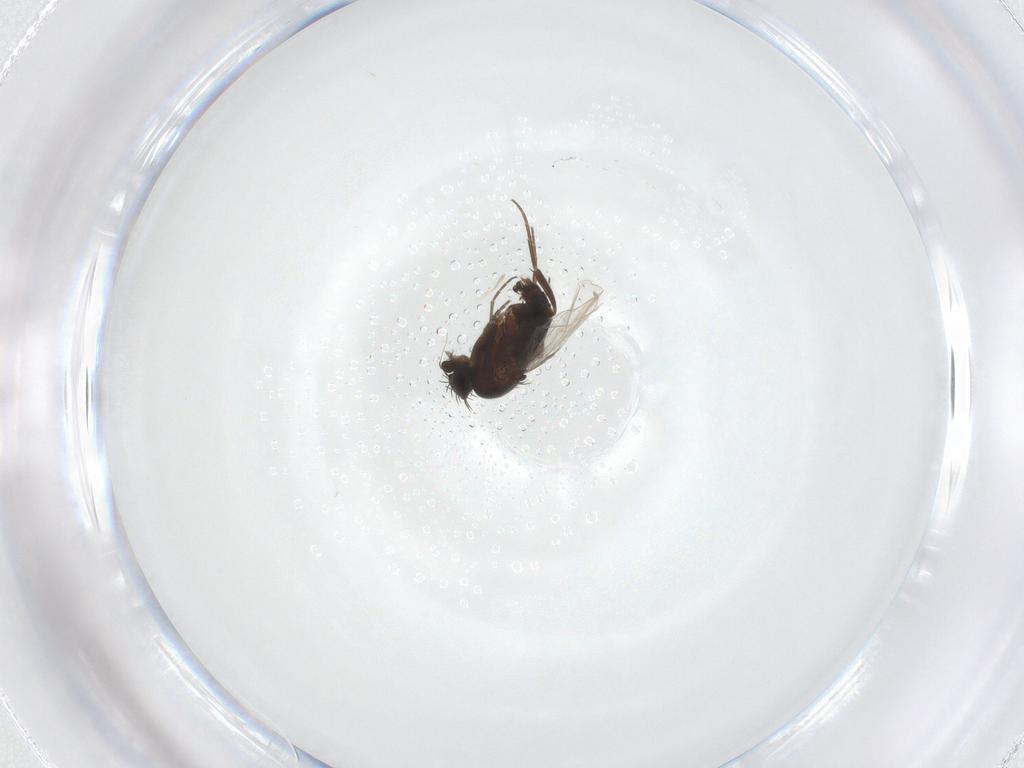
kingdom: Animalia
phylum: Arthropoda
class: Insecta
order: Diptera
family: Phoridae
